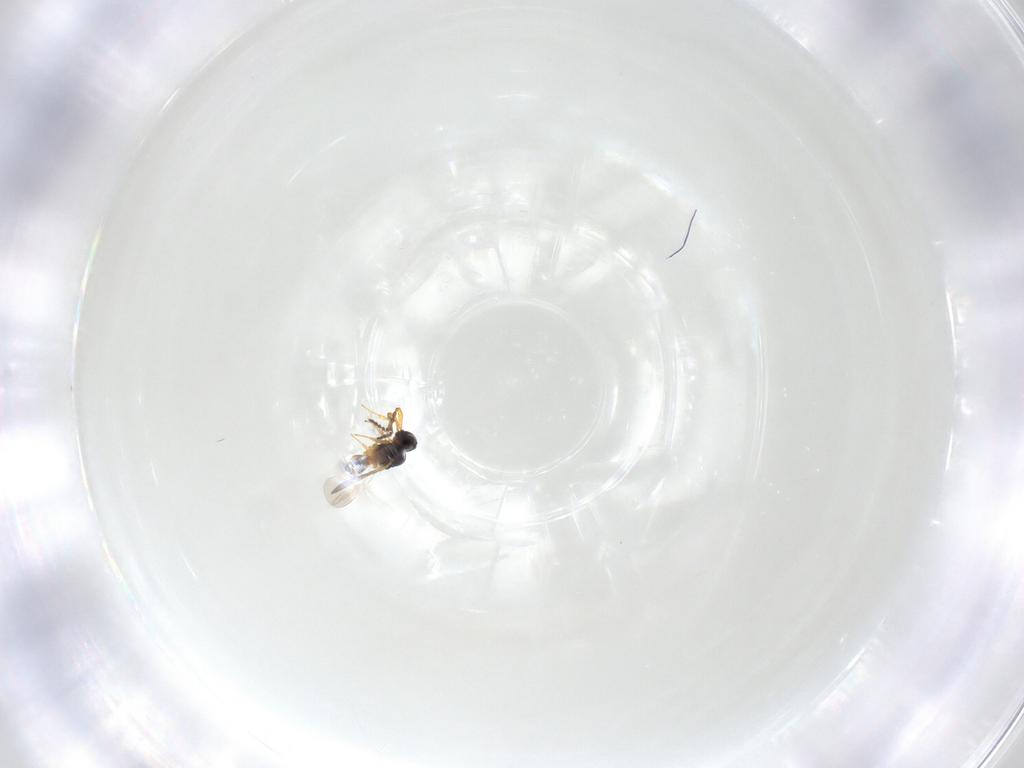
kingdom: Animalia
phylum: Arthropoda
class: Insecta
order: Hymenoptera
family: Platygastridae
